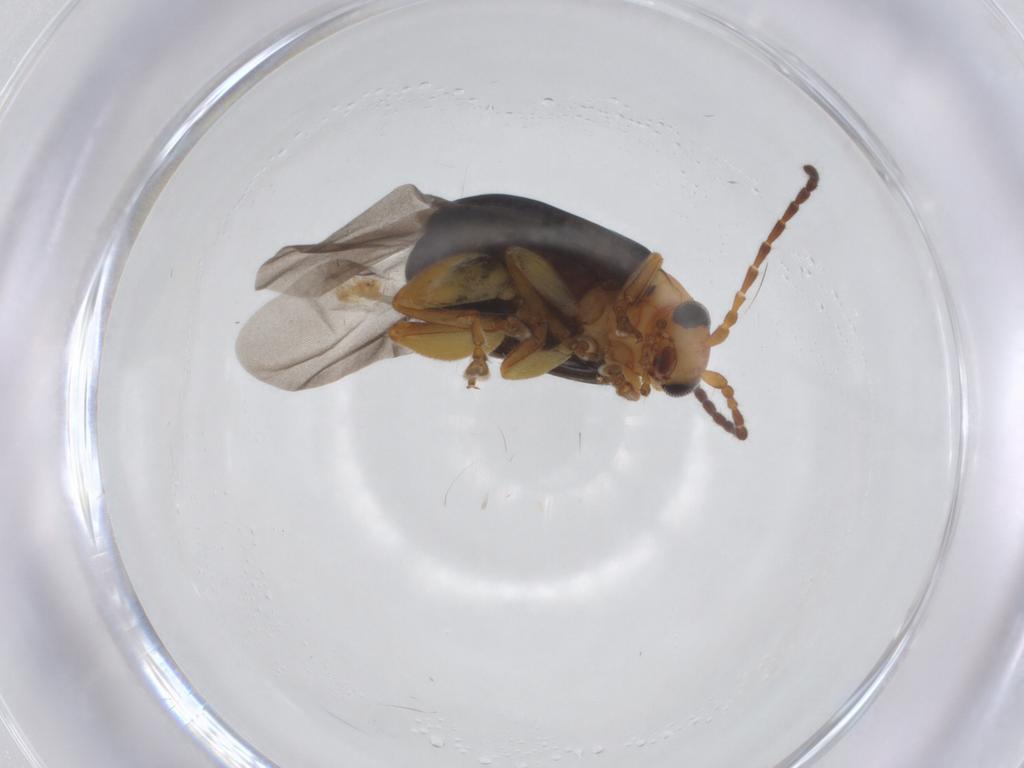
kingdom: Animalia
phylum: Arthropoda
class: Insecta
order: Coleoptera
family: Chrysomelidae
